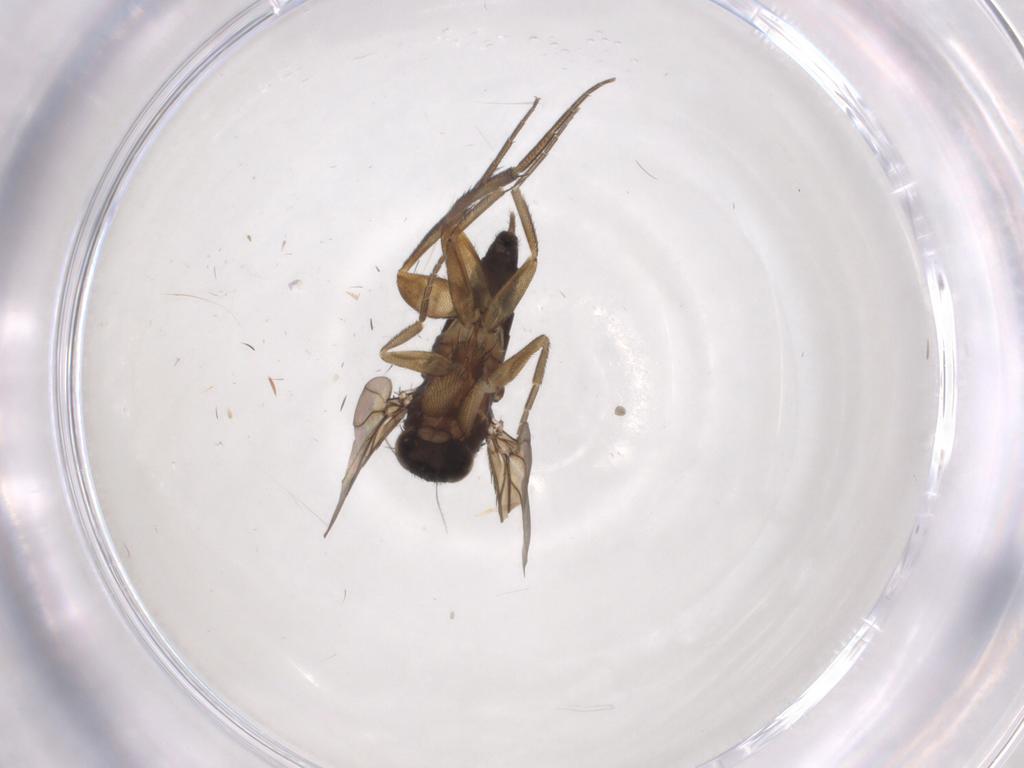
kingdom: Animalia
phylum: Arthropoda
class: Insecta
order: Diptera
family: Phoridae
